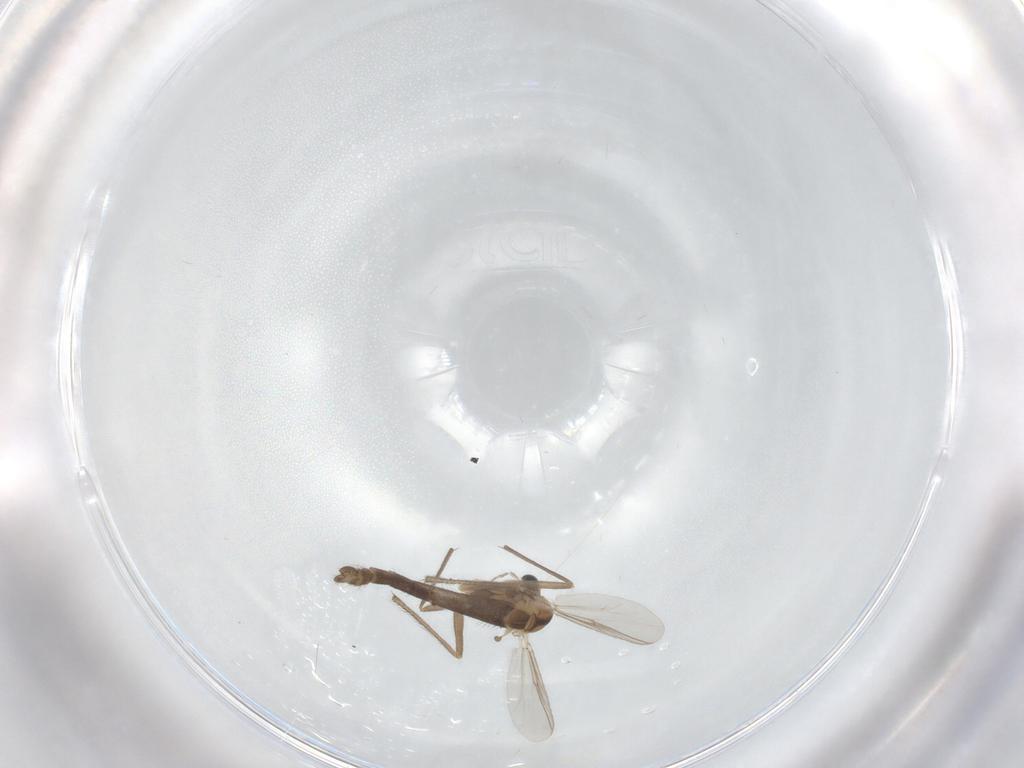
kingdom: Animalia
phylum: Arthropoda
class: Insecta
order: Diptera
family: Chironomidae
